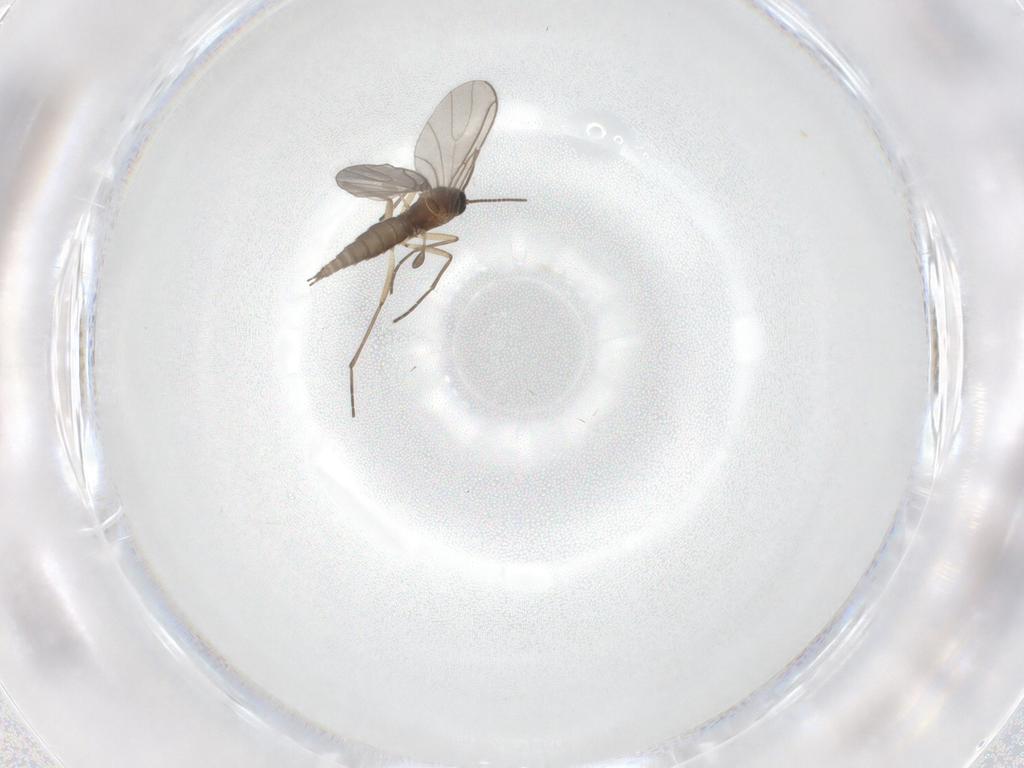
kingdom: Animalia
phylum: Arthropoda
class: Insecta
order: Diptera
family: Sciaridae
